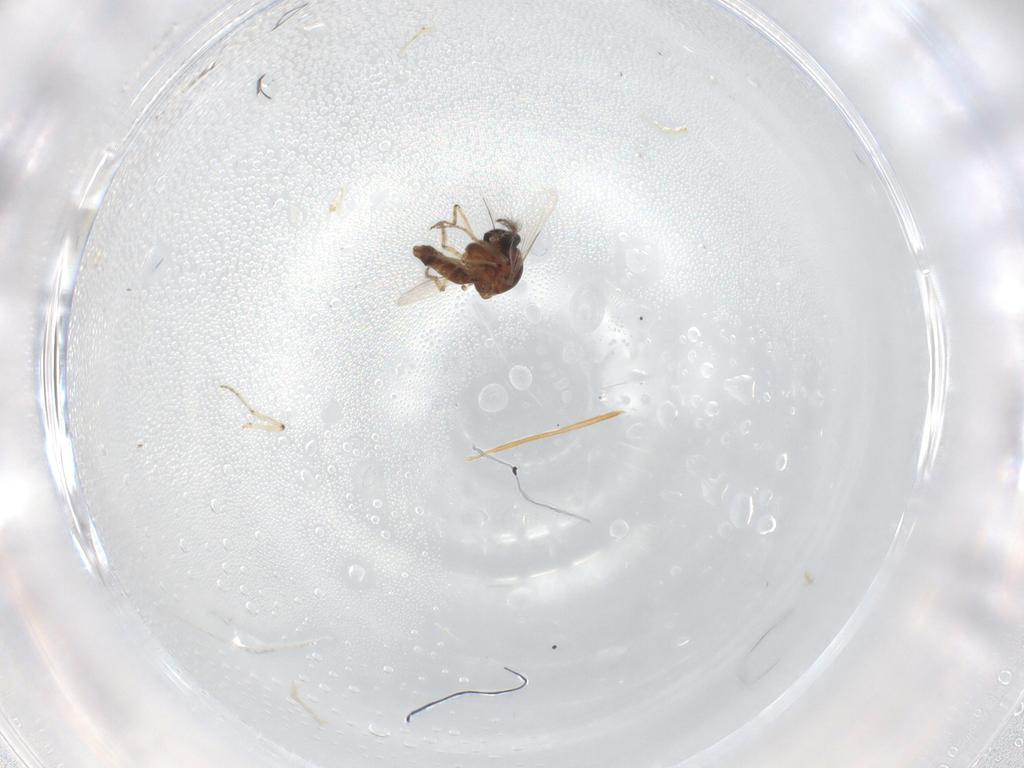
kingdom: Animalia
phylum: Arthropoda
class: Insecta
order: Diptera
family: Ceratopogonidae
